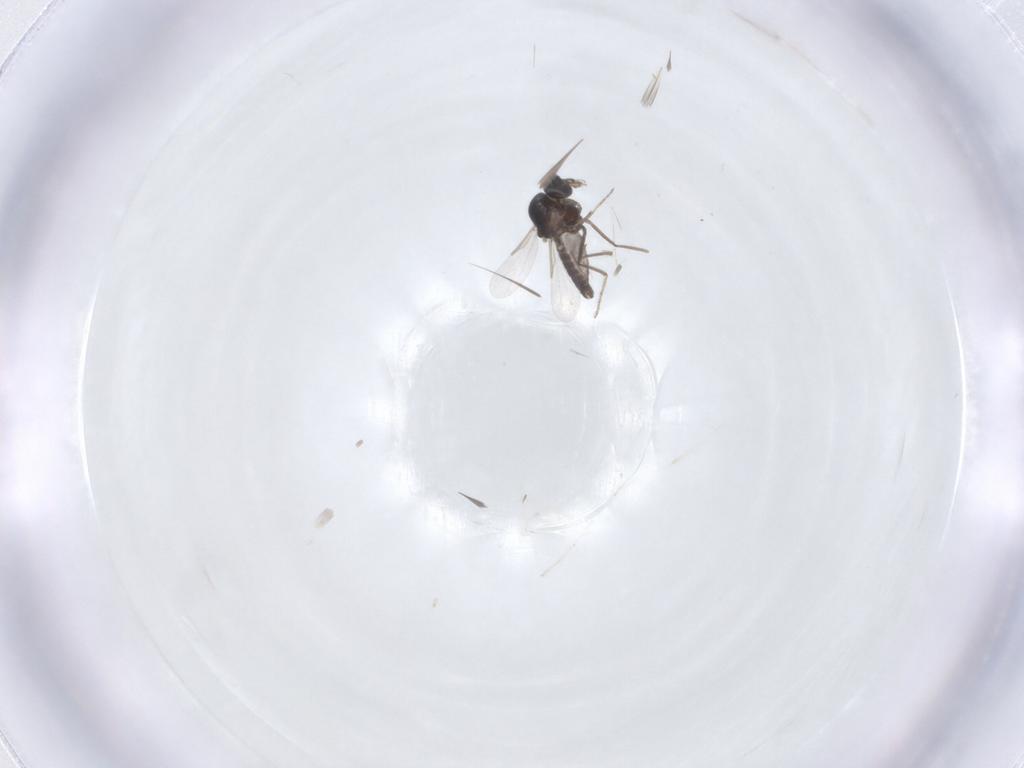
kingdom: Animalia
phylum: Arthropoda
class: Insecta
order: Diptera
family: Ceratopogonidae
